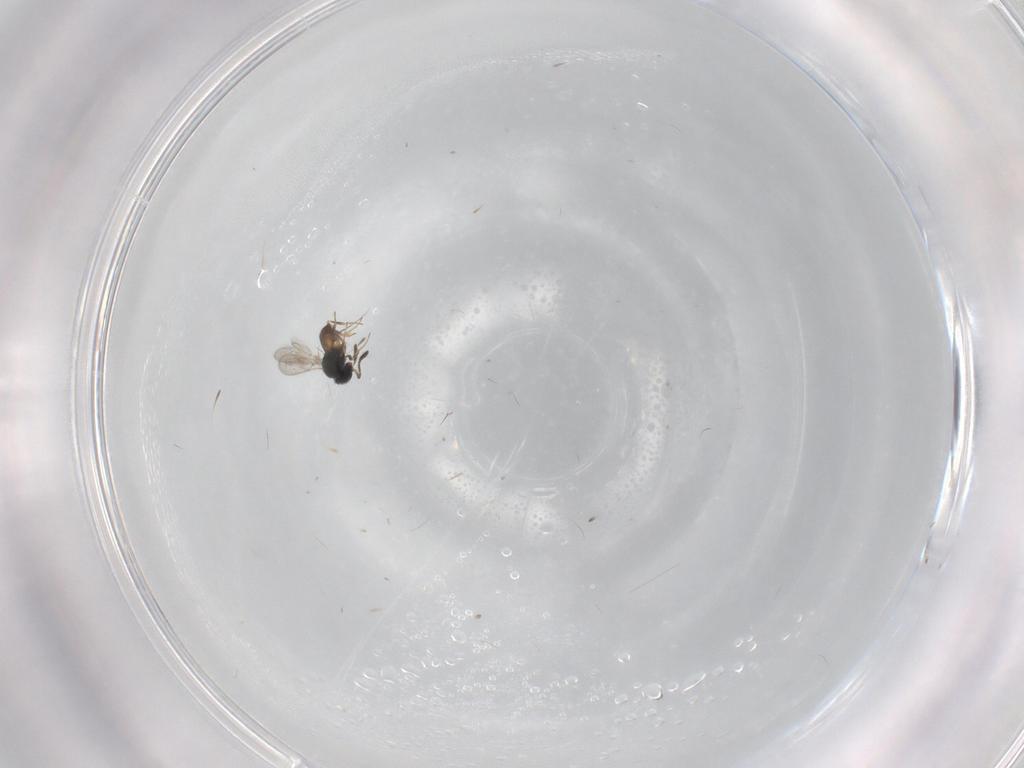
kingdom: Animalia
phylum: Arthropoda
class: Insecta
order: Hymenoptera
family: Scelionidae
